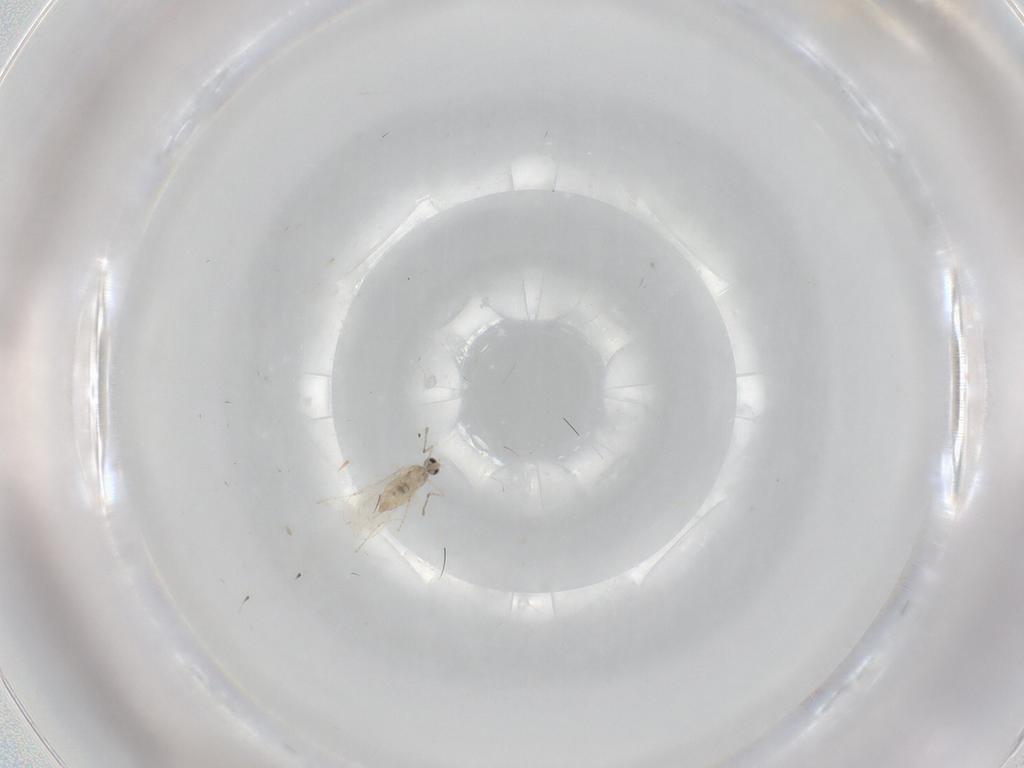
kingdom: Animalia
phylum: Arthropoda
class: Insecta
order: Diptera
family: Cecidomyiidae
